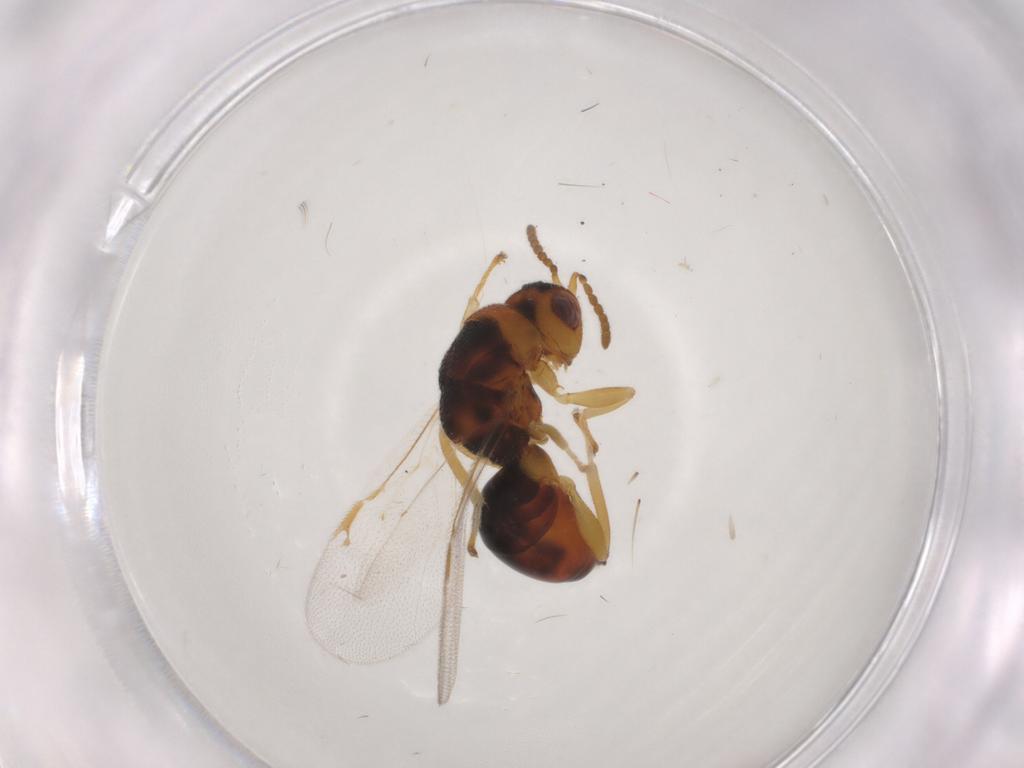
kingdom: Animalia
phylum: Arthropoda
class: Insecta
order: Hymenoptera
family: Eurytomidae
